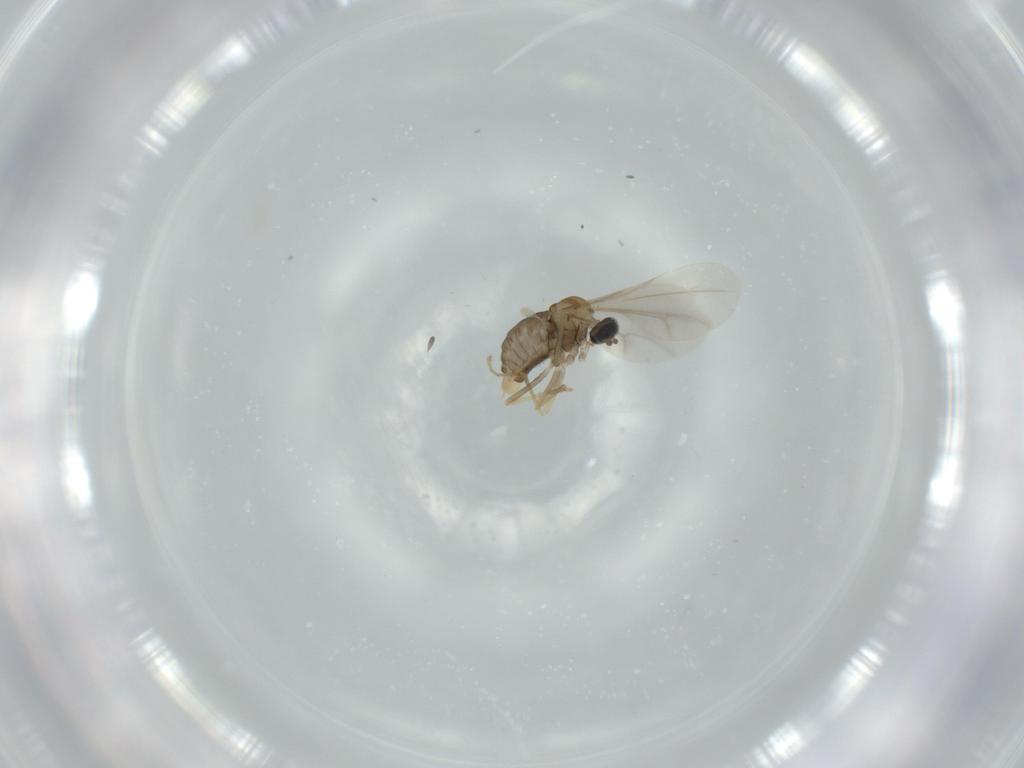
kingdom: Animalia
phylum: Arthropoda
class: Insecta
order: Diptera
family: Cecidomyiidae
